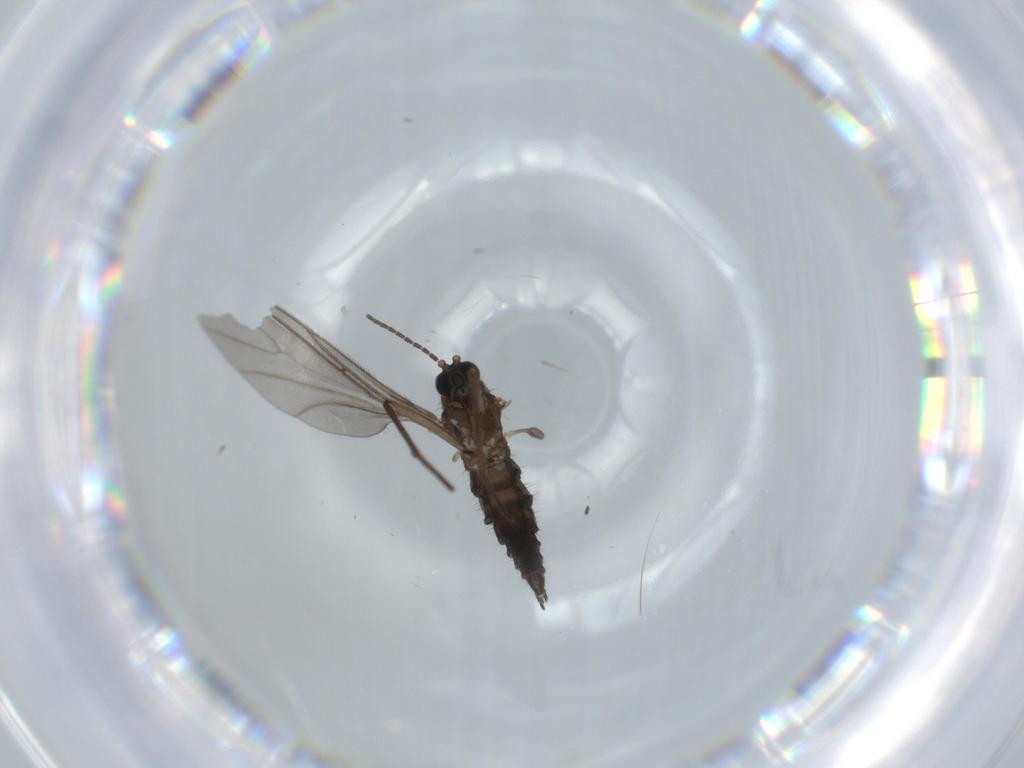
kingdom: Animalia
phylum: Arthropoda
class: Insecta
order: Diptera
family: Sciaridae
